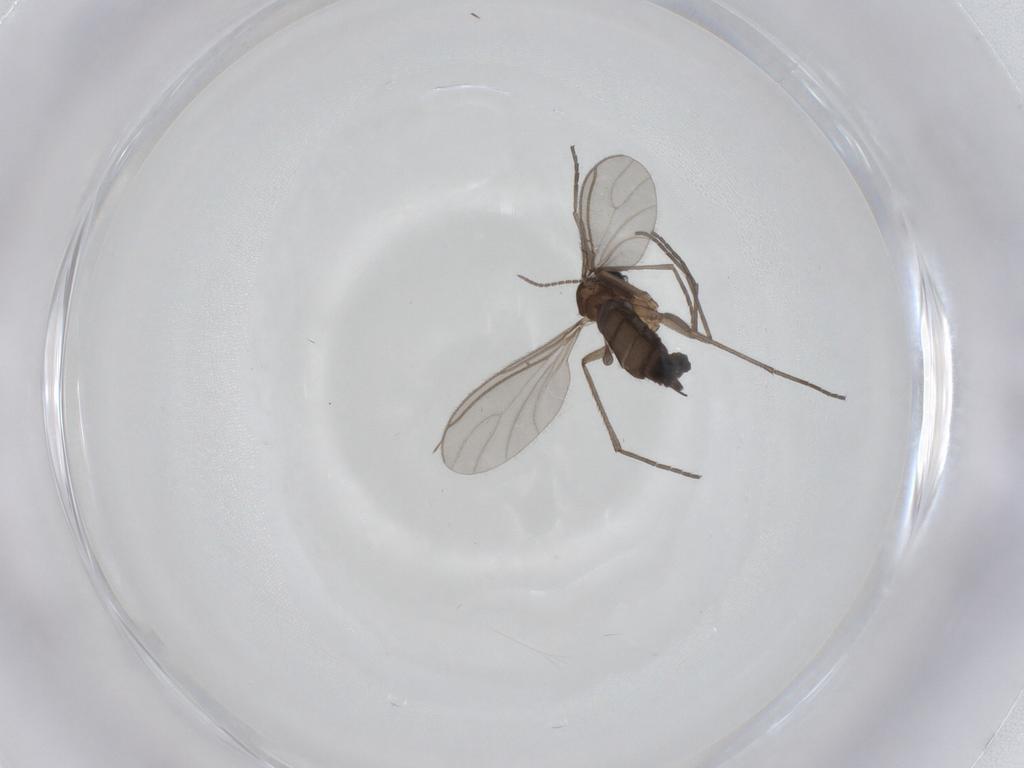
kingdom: Animalia
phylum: Arthropoda
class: Insecta
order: Diptera
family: Sciaridae
